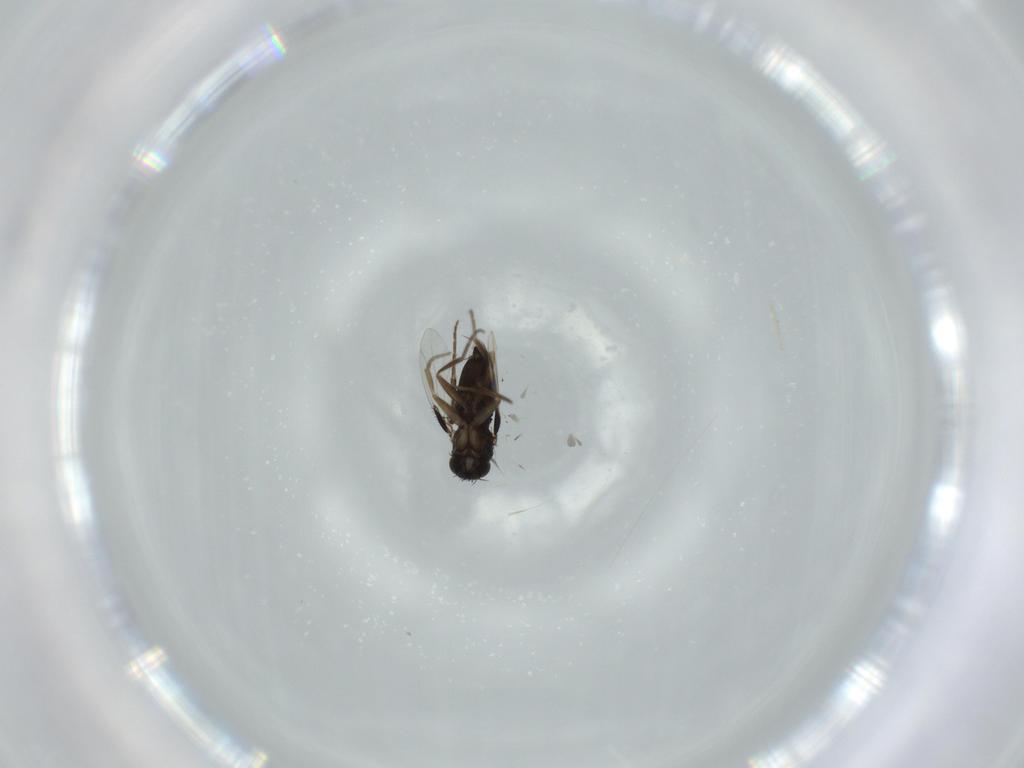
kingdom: Animalia
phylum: Arthropoda
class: Insecta
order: Diptera
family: Phoridae
